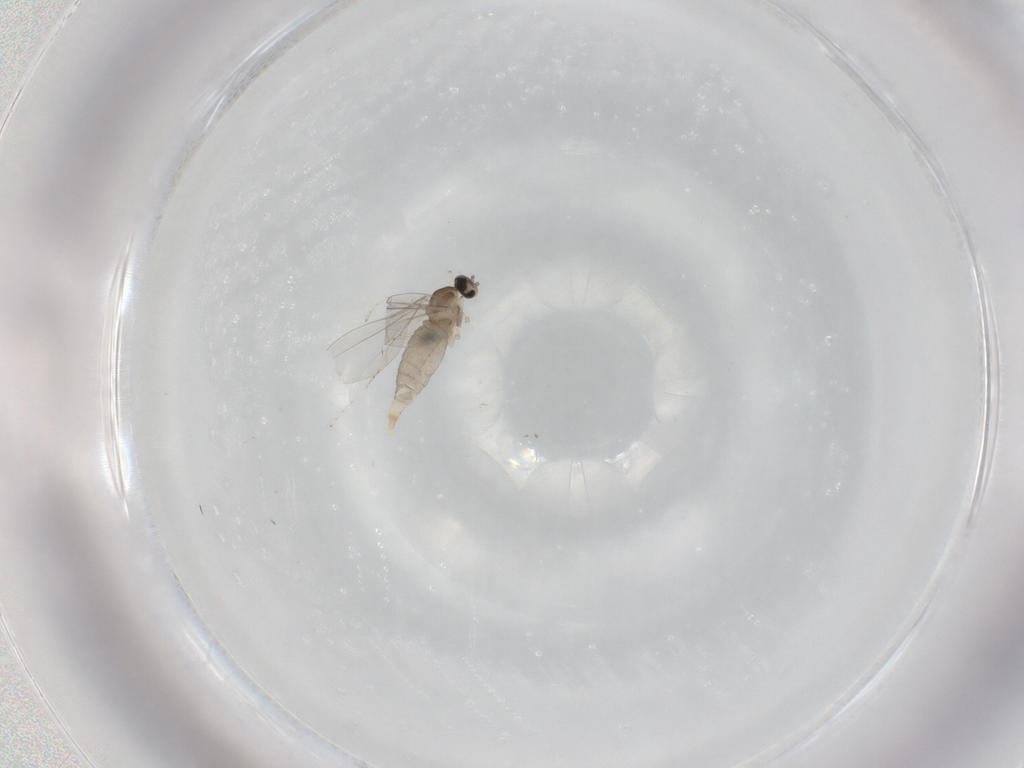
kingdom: Animalia
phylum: Arthropoda
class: Insecta
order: Diptera
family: Cecidomyiidae
